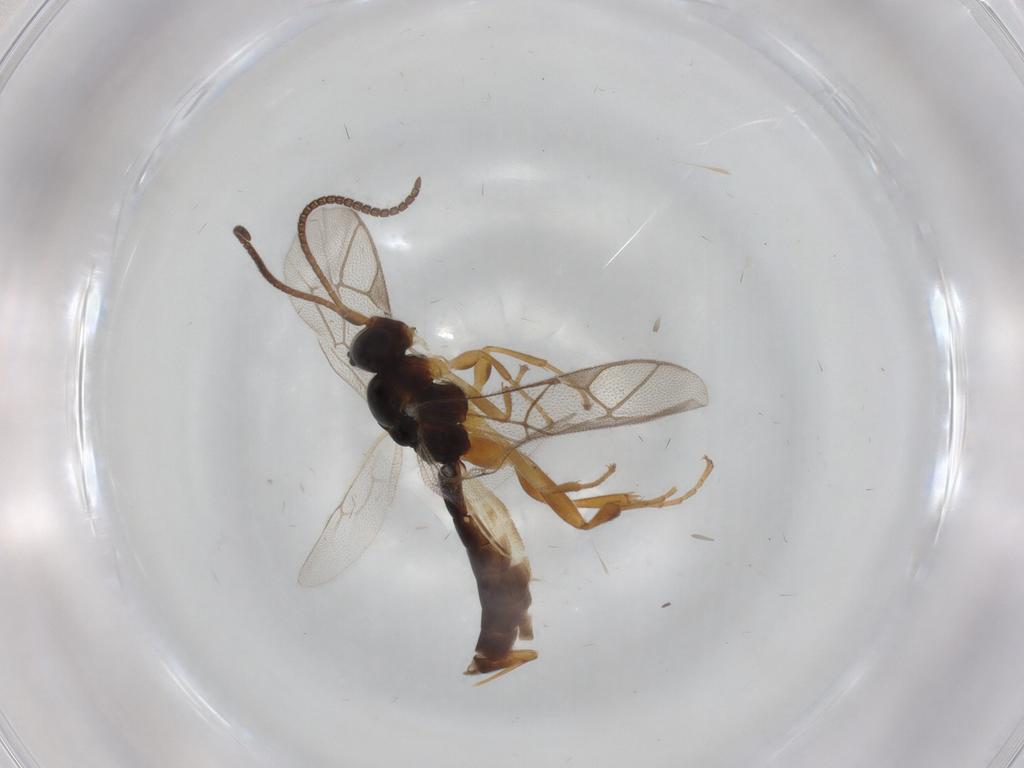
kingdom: Animalia
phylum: Arthropoda
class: Insecta
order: Hymenoptera
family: Ichneumonidae
